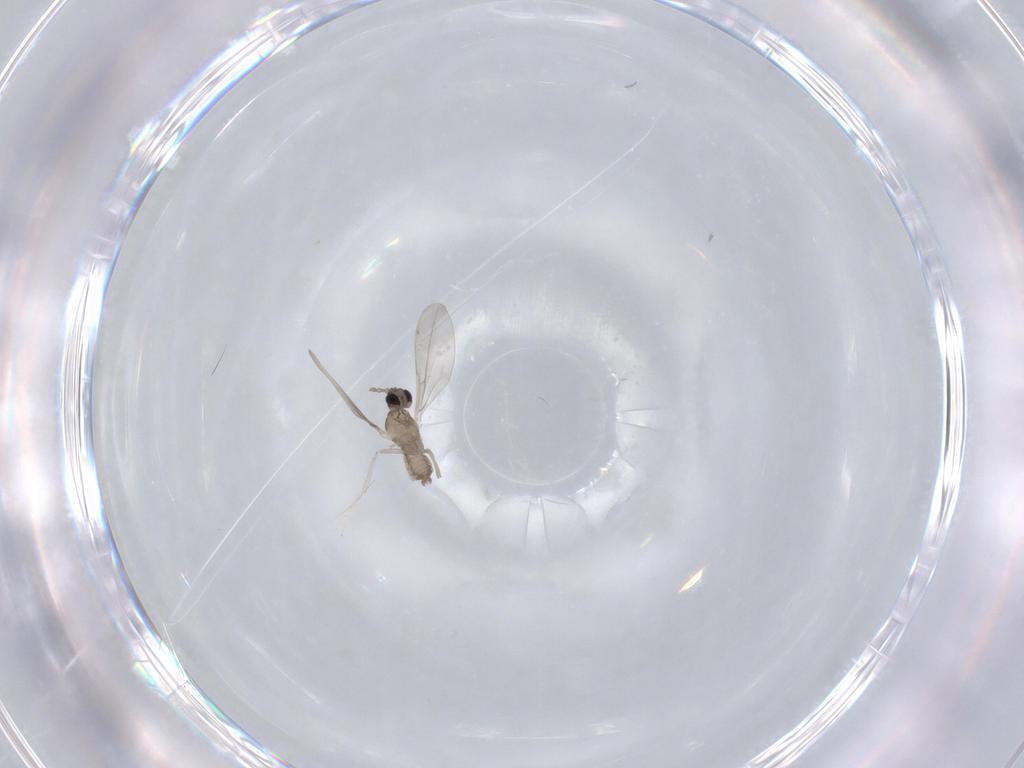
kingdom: Animalia
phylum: Arthropoda
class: Insecta
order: Diptera
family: Cecidomyiidae
